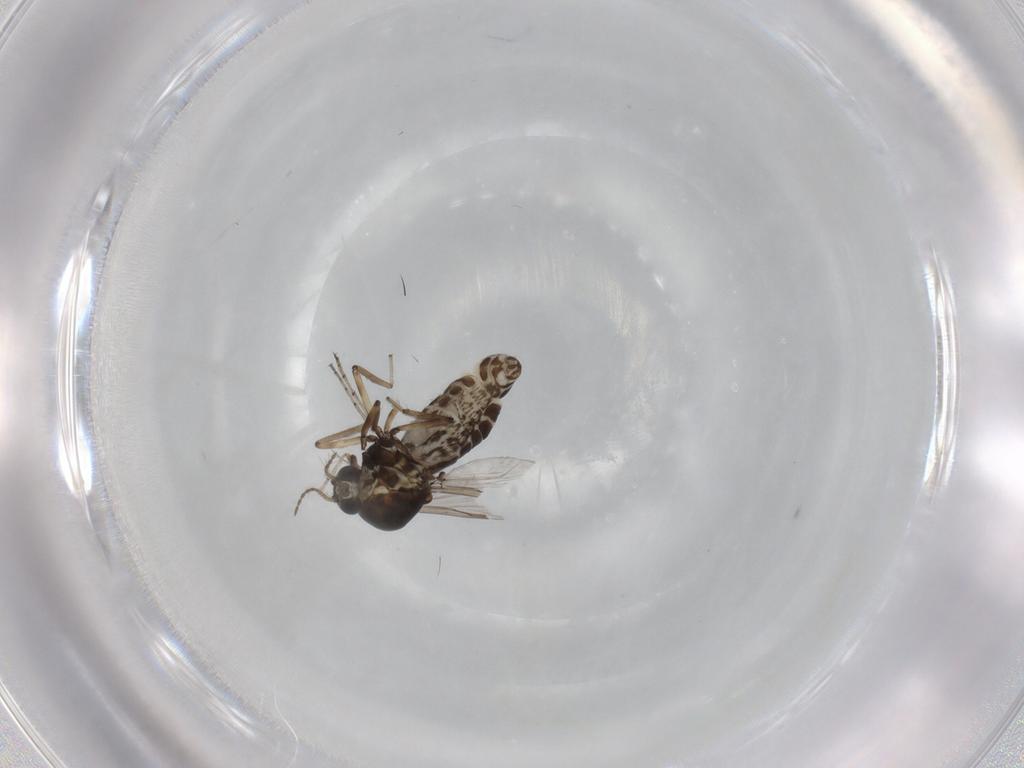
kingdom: Animalia
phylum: Arthropoda
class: Insecta
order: Diptera
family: Ceratopogonidae
